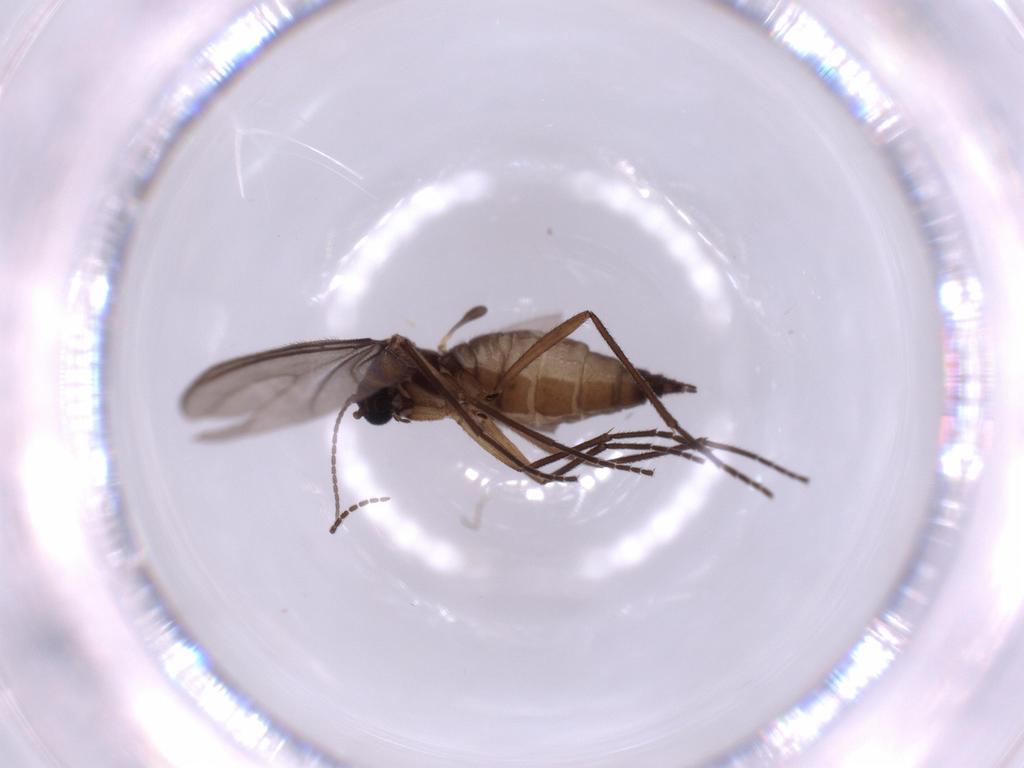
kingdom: Animalia
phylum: Arthropoda
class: Insecta
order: Diptera
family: Sciaridae
